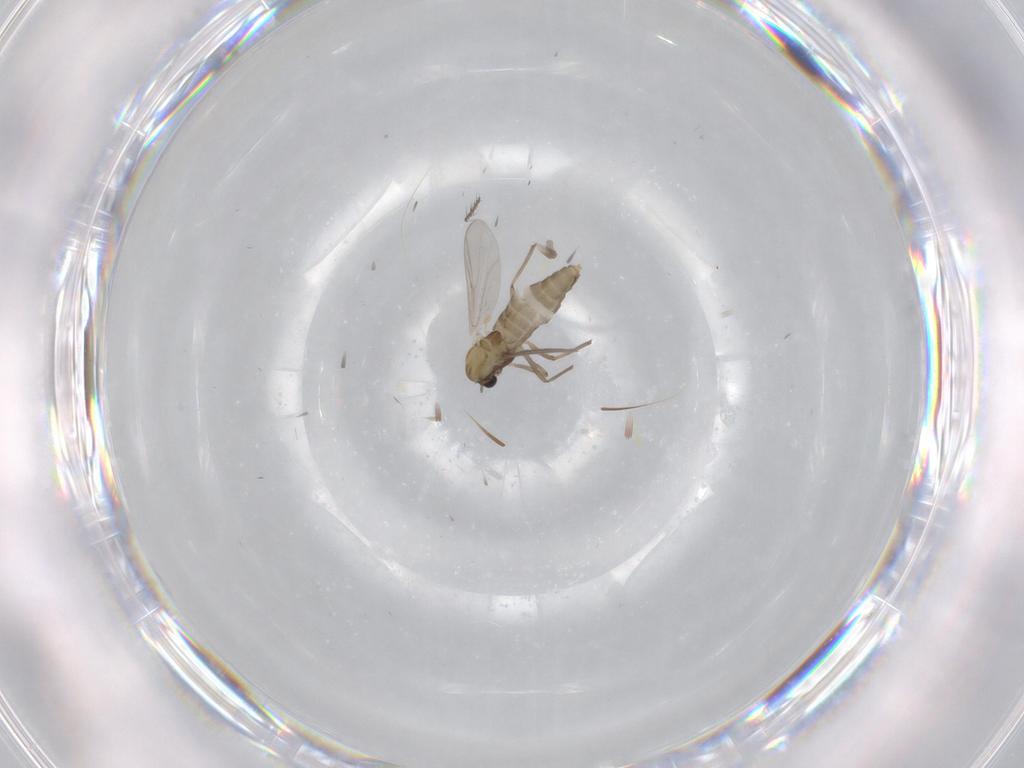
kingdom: Animalia
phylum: Arthropoda
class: Insecta
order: Diptera
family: Chironomidae
